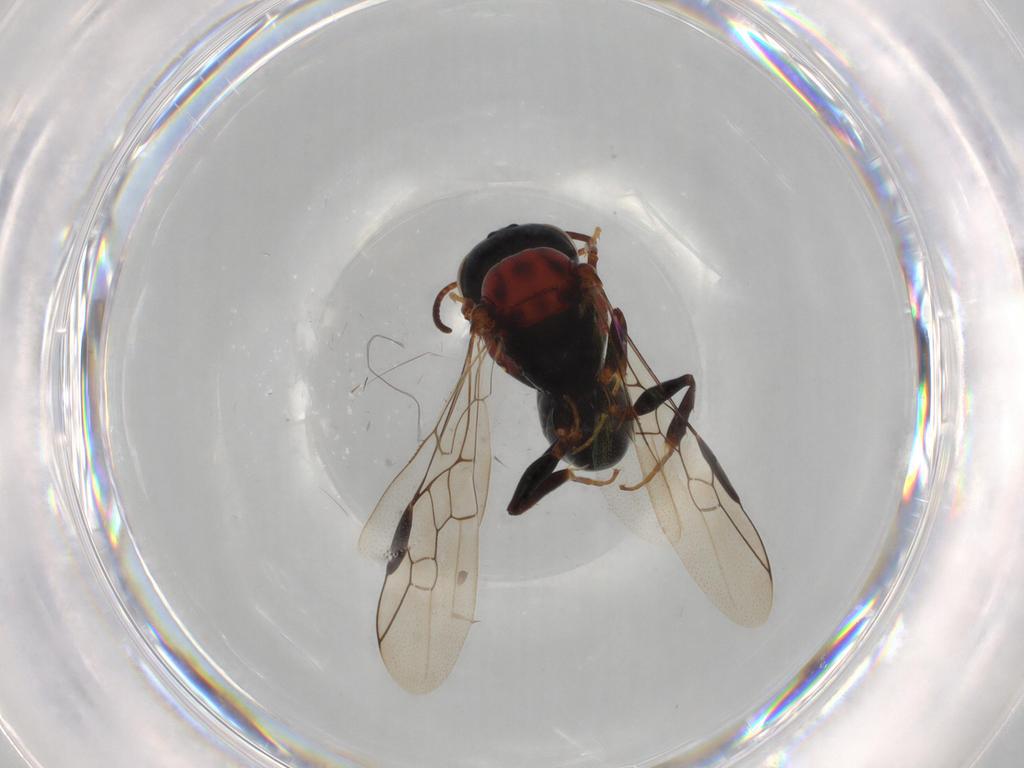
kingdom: Animalia
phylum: Arthropoda
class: Insecta
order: Hymenoptera
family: Pemphredonidae
